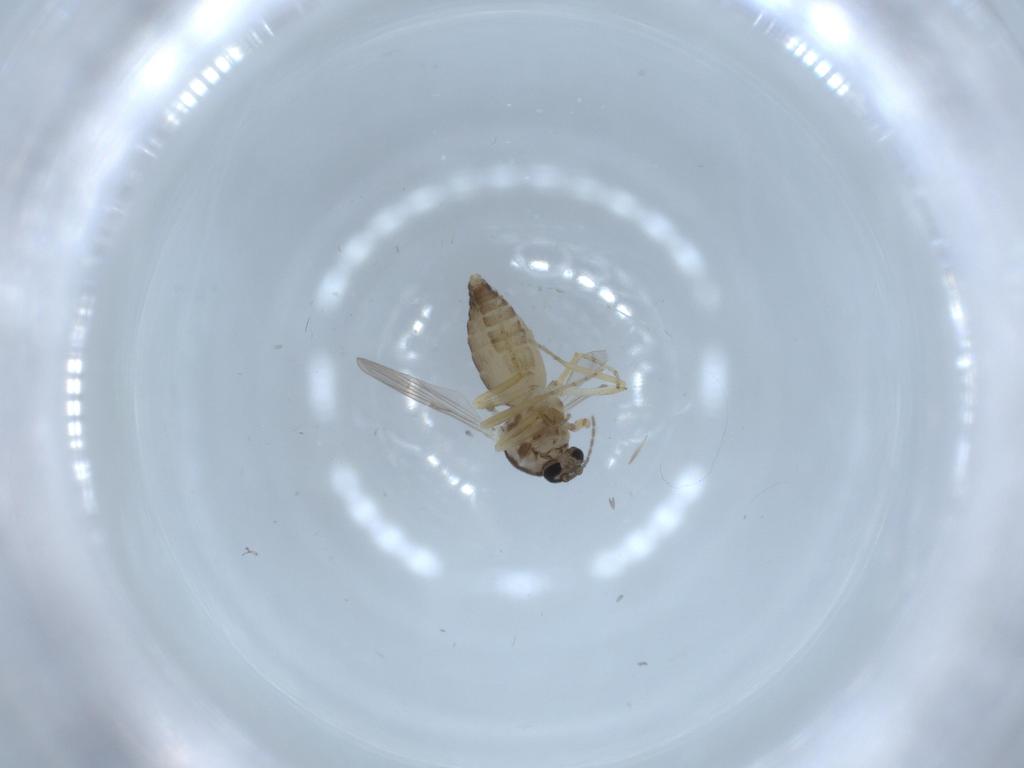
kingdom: Animalia
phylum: Arthropoda
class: Insecta
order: Diptera
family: Ceratopogonidae
